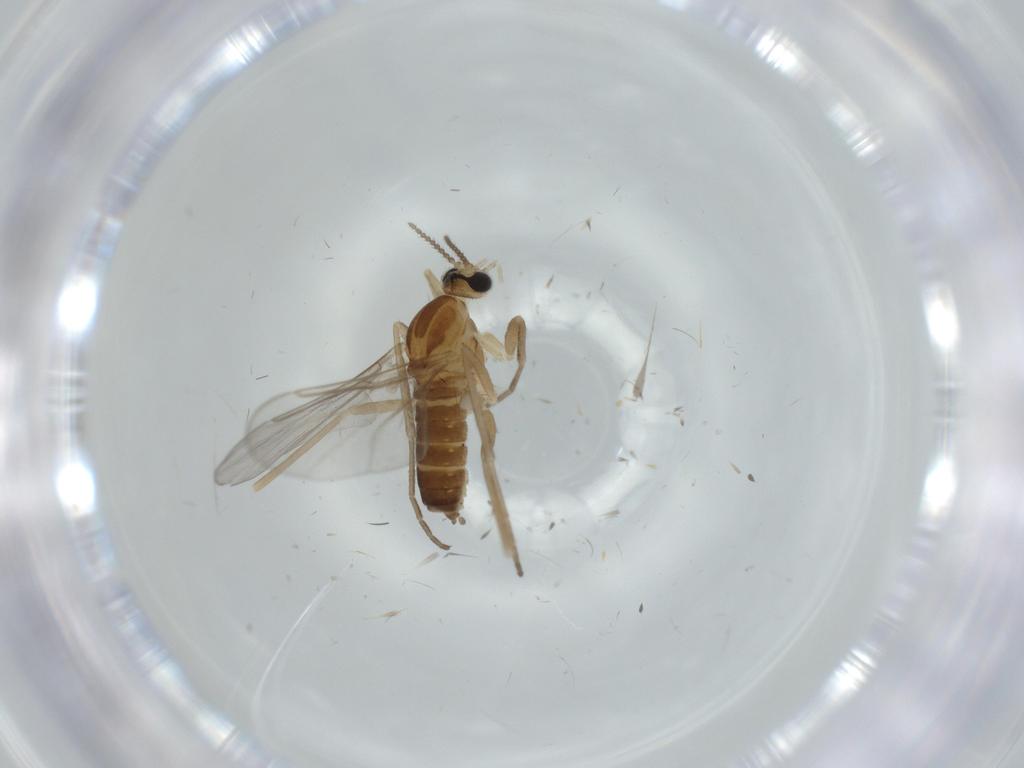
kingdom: Animalia
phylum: Arthropoda
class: Insecta
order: Diptera
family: Cecidomyiidae
